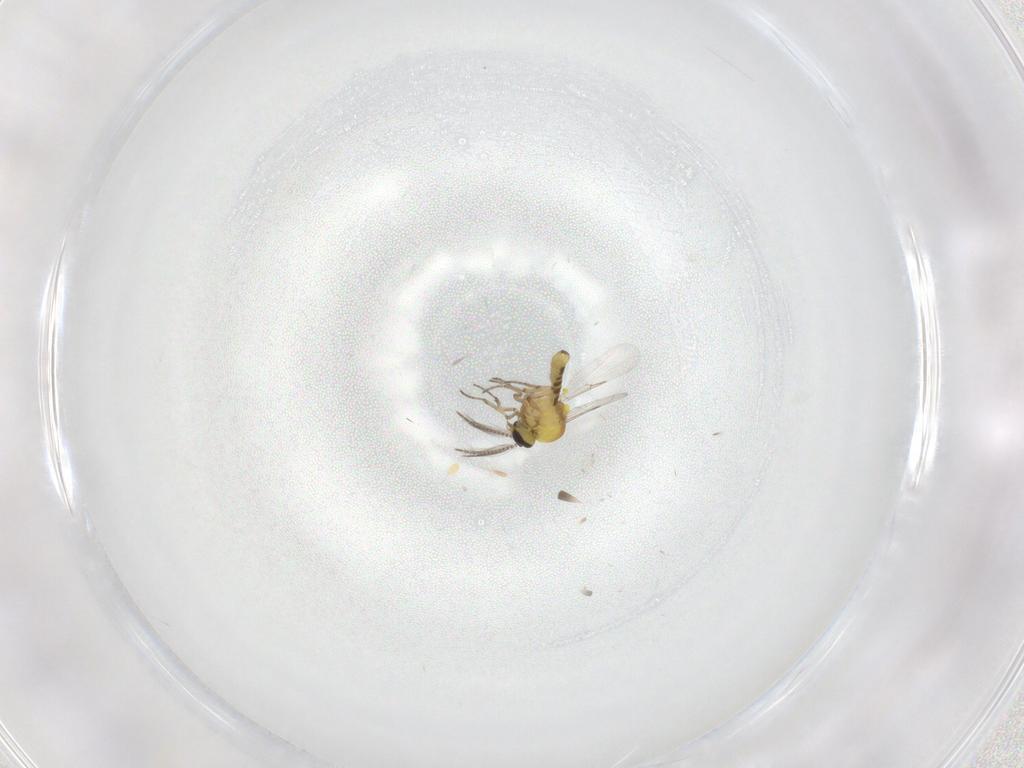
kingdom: Animalia
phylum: Arthropoda
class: Insecta
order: Diptera
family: Ceratopogonidae
